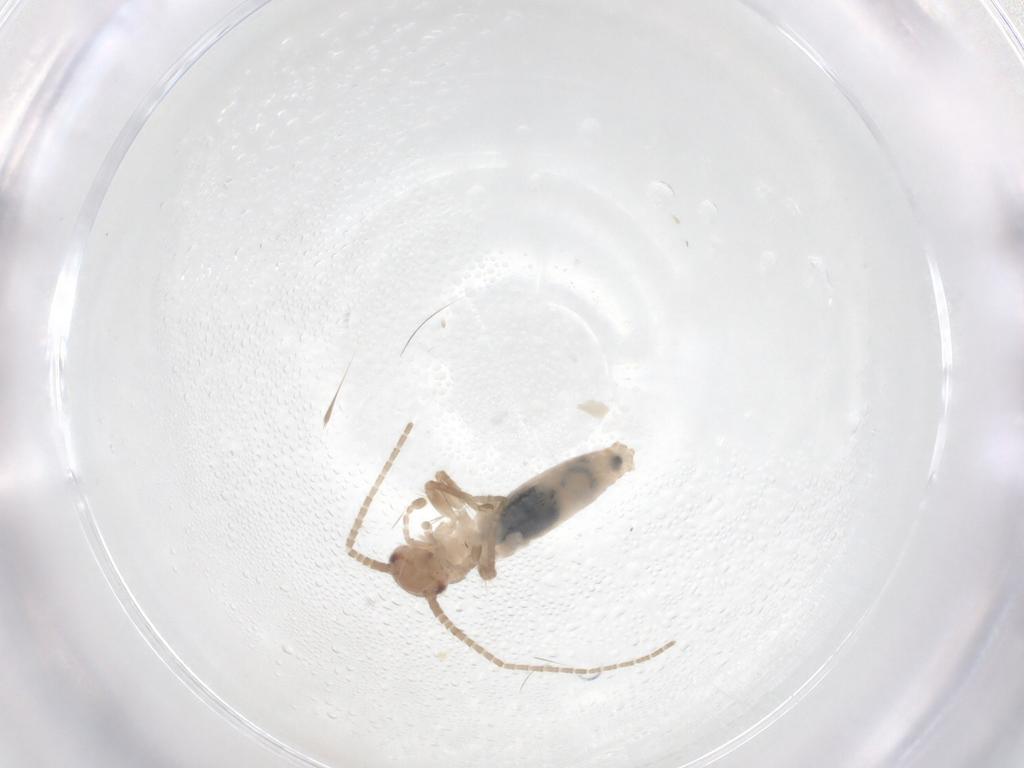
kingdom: Animalia
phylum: Arthropoda
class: Insecta
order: Orthoptera
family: Gryllidae
